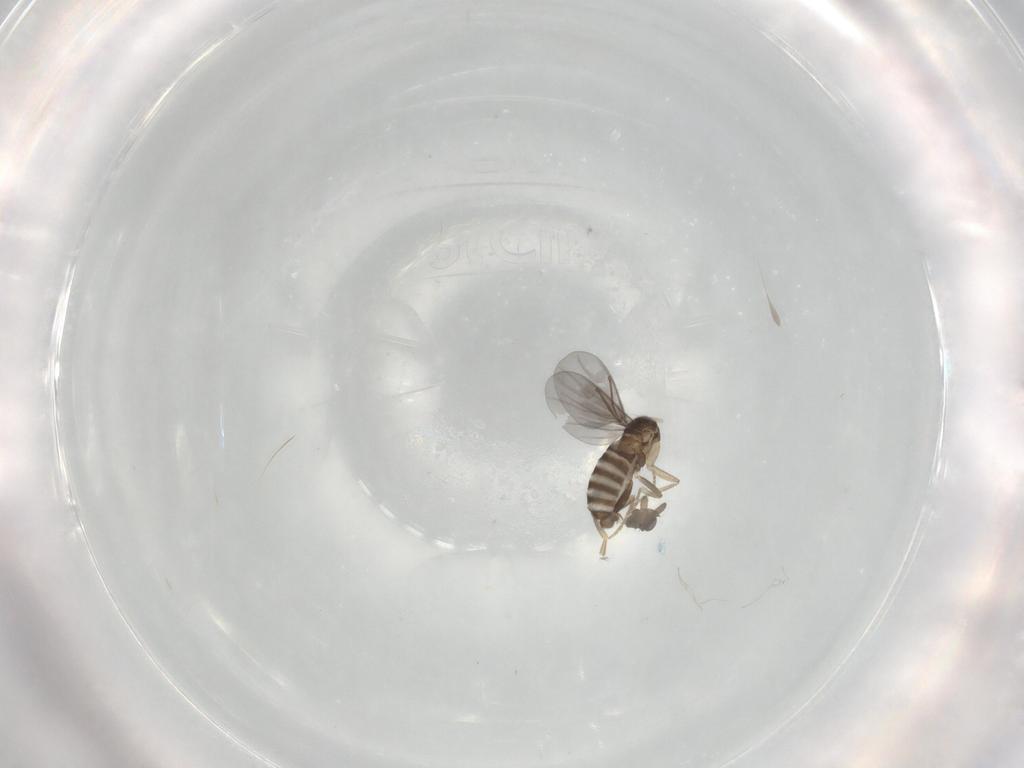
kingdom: Animalia
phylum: Arthropoda
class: Insecta
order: Diptera
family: Phoridae
